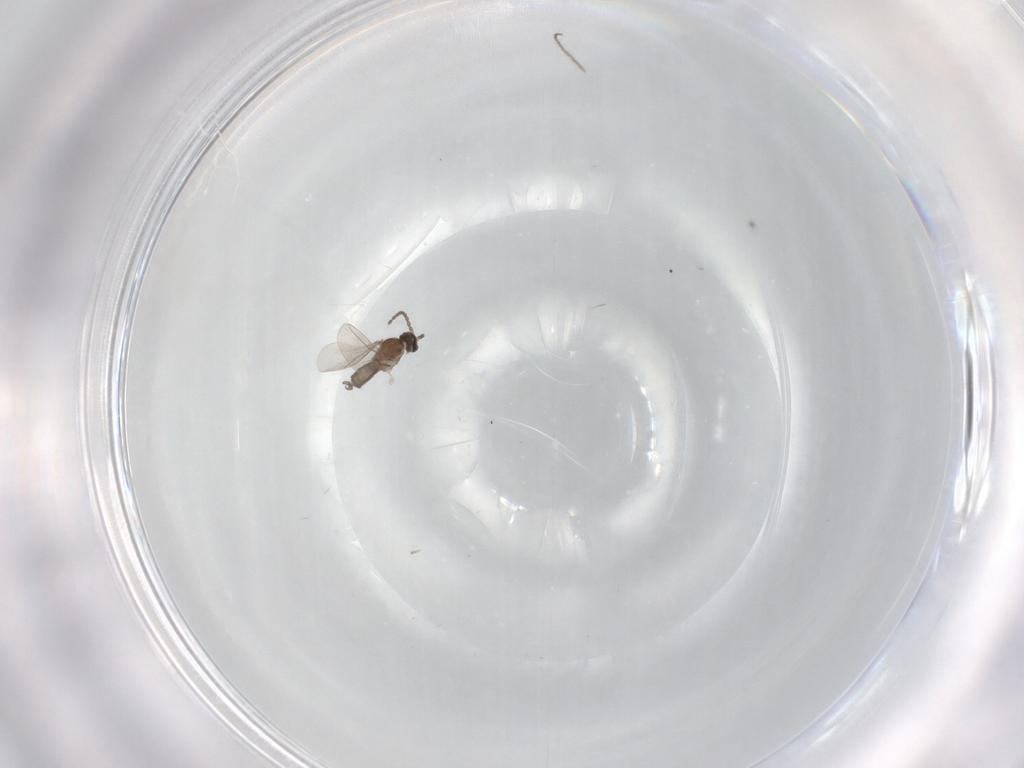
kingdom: Animalia
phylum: Arthropoda
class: Insecta
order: Diptera
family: Cecidomyiidae
